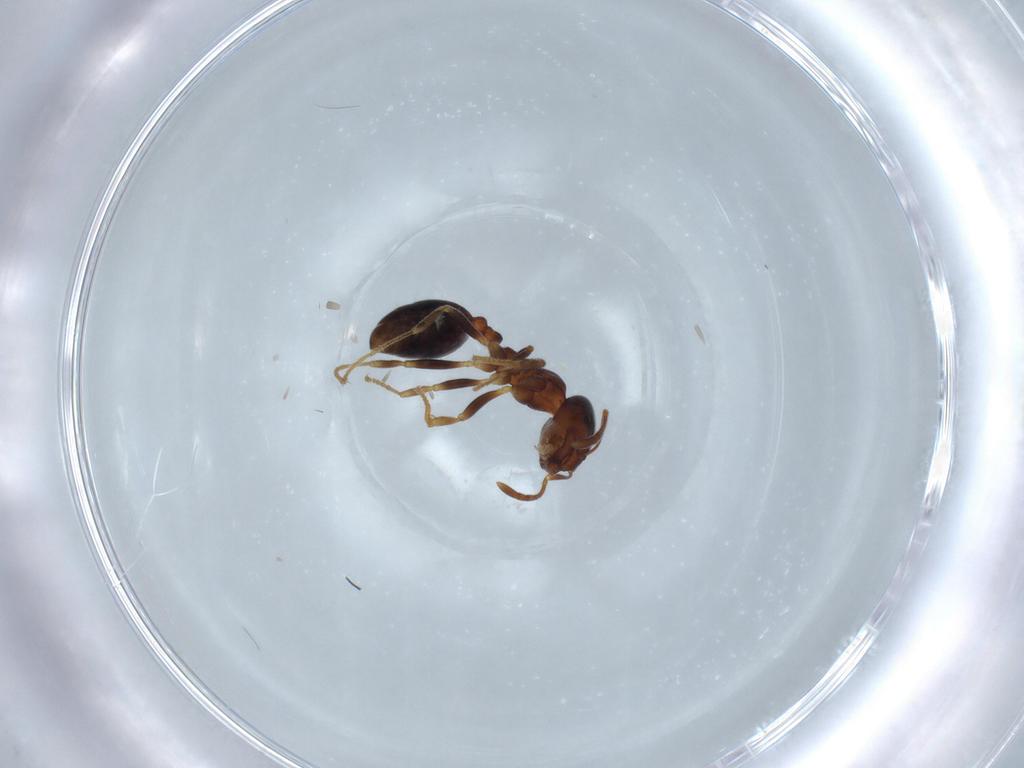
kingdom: Animalia
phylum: Arthropoda
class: Insecta
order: Hymenoptera
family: Formicidae
